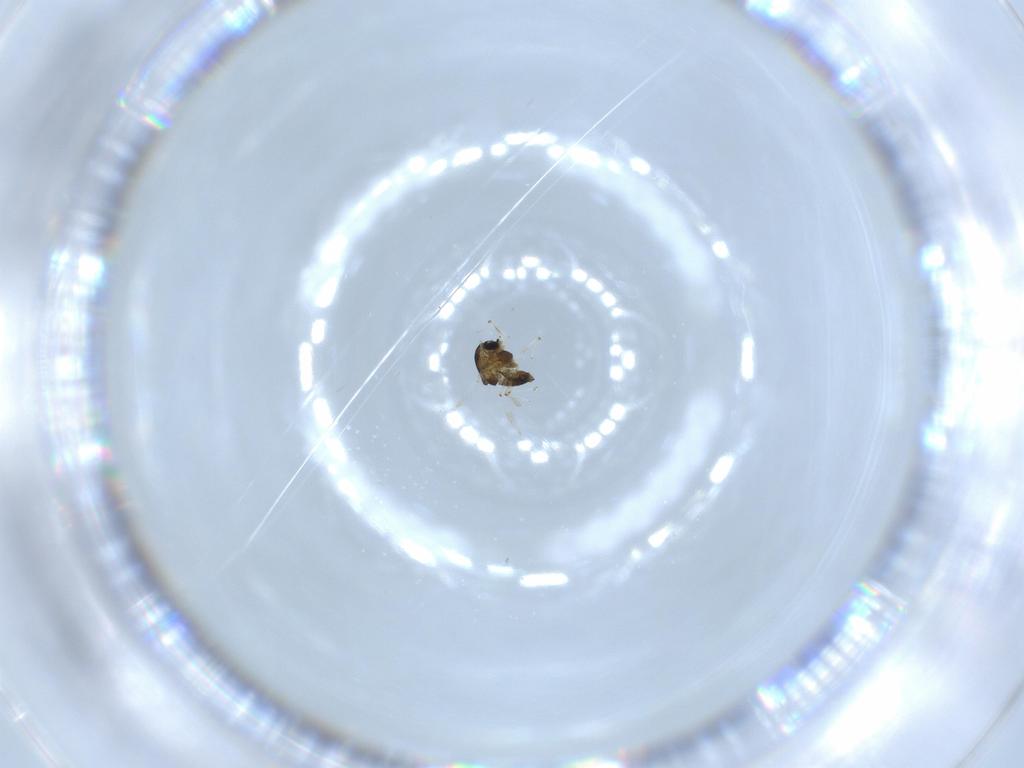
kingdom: Animalia
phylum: Arthropoda
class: Insecta
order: Diptera
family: Chironomidae
